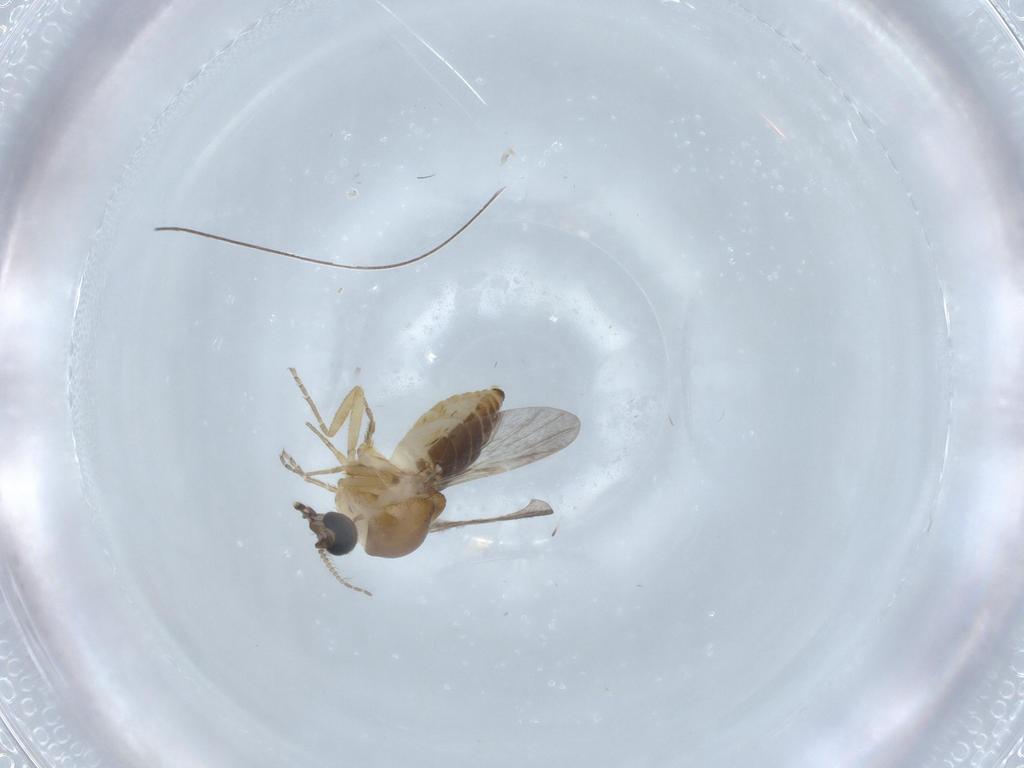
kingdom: Animalia
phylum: Arthropoda
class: Insecta
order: Diptera
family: Ceratopogonidae
